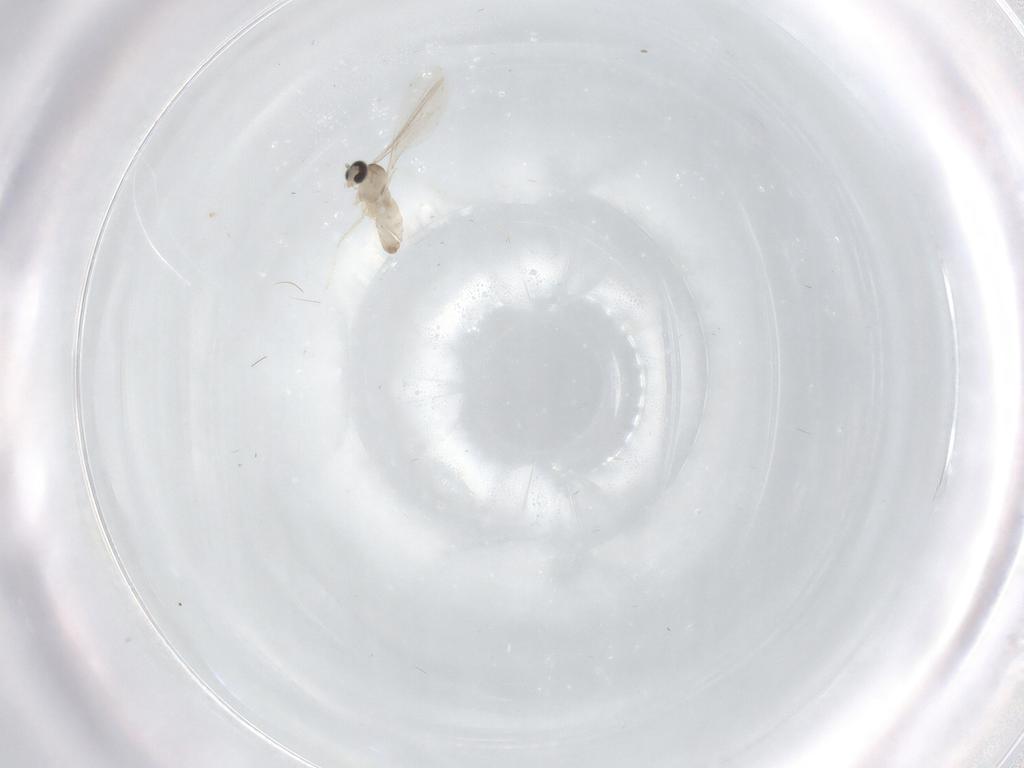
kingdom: Animalia
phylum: Arthropoda
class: Insecta
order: Diptera
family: Cecidomyiidae
